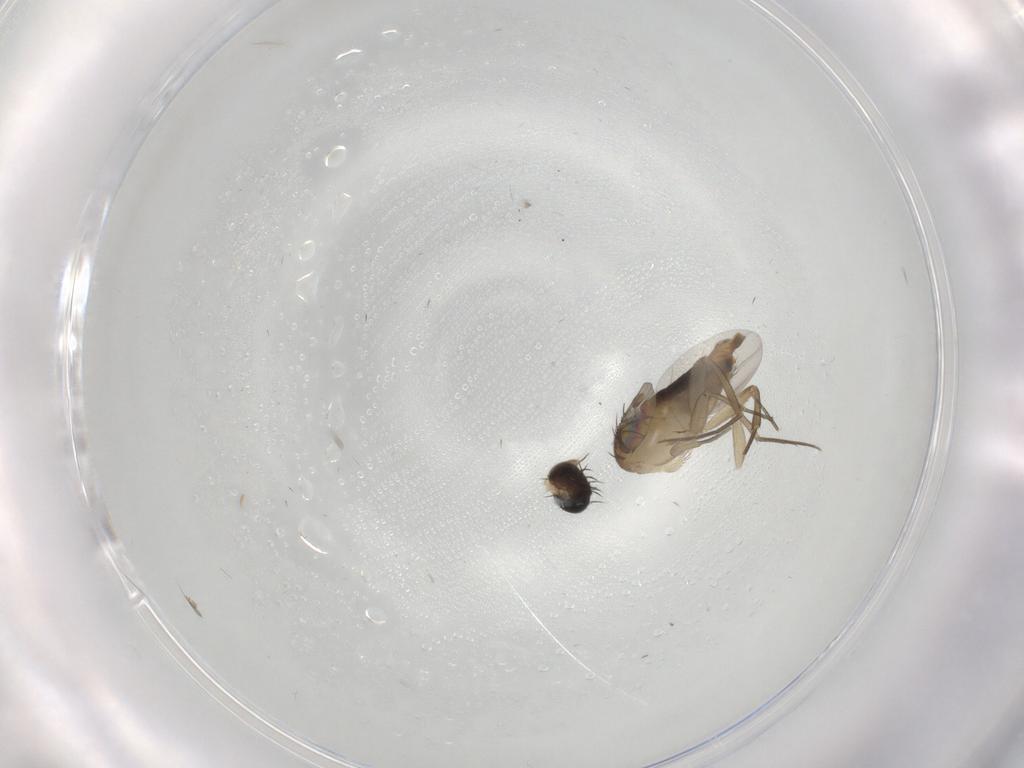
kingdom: Animalia
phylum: Arthropoda
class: Insecta
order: Diptera
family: Phoridae
